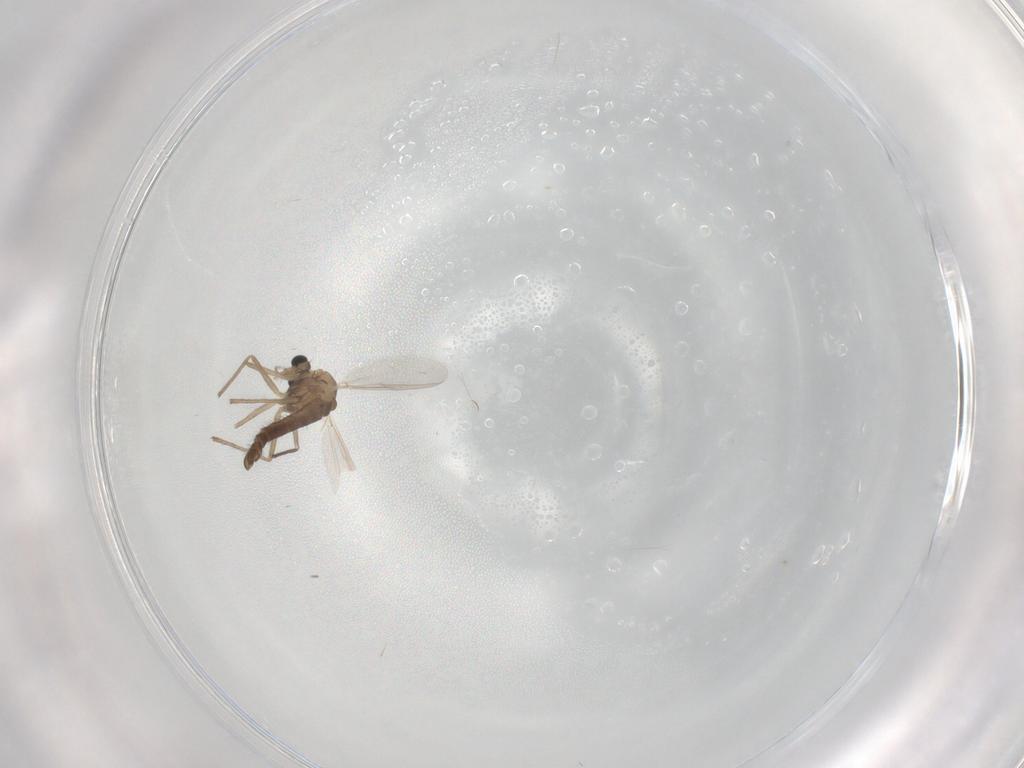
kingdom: Animalia
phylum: Arthropoda
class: Insecta
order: Diptera
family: Chironomidae
